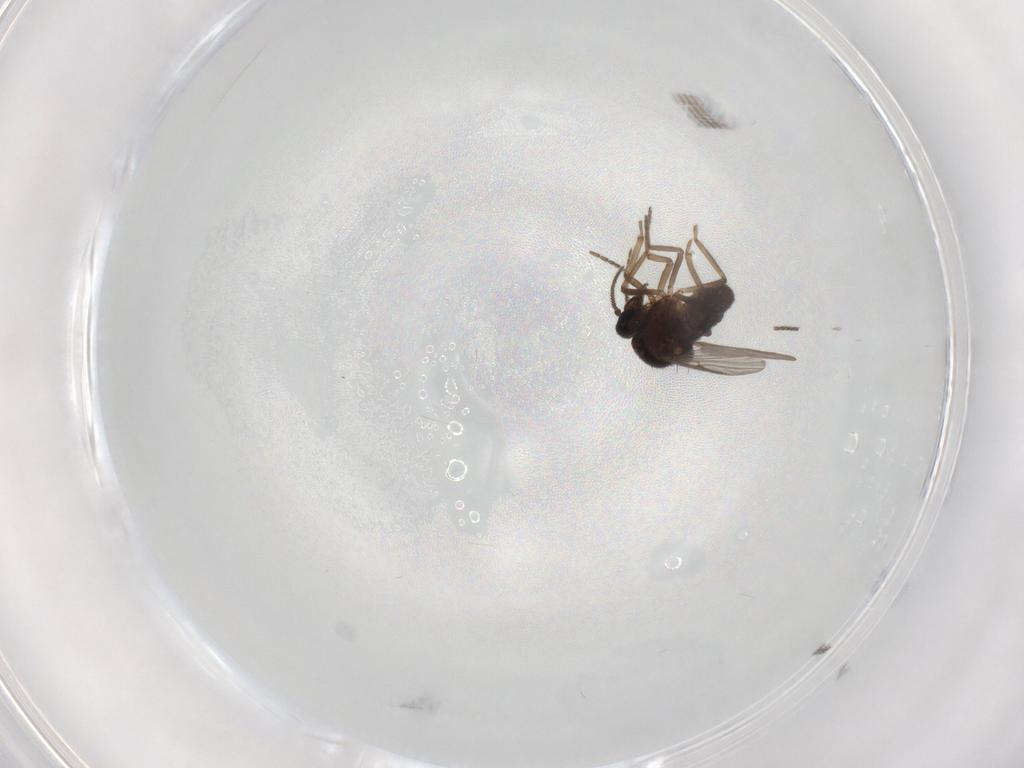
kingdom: Animalia
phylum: Arthropoda
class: Insecta
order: Diptera
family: Ceratopogonidae
